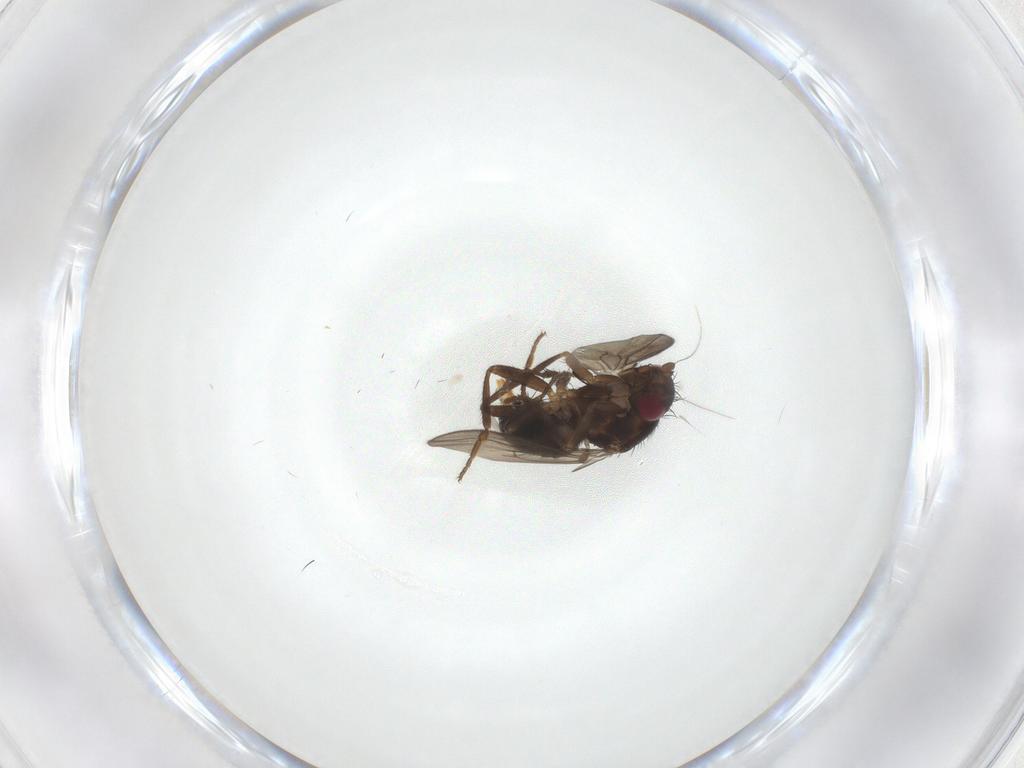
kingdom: Animalia
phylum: Arthropoda
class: Insecta
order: Diptera
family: Sphaeroceridae
